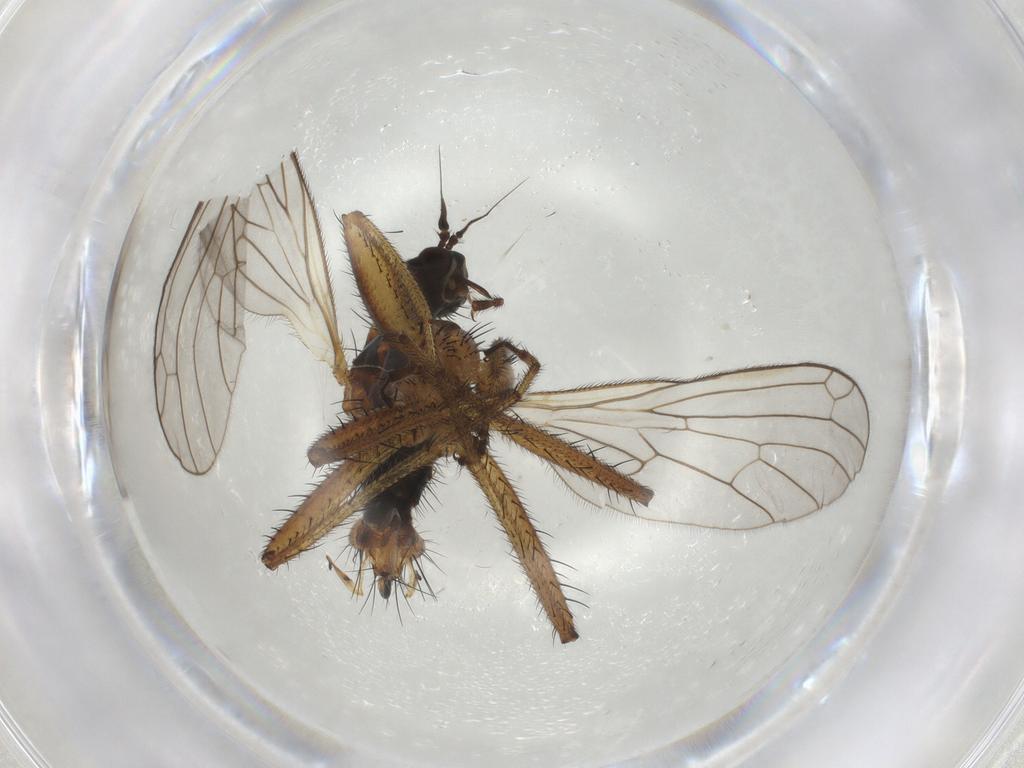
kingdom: Animalia
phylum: Arthropoda
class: Insecta
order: Diptera
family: Empididae
